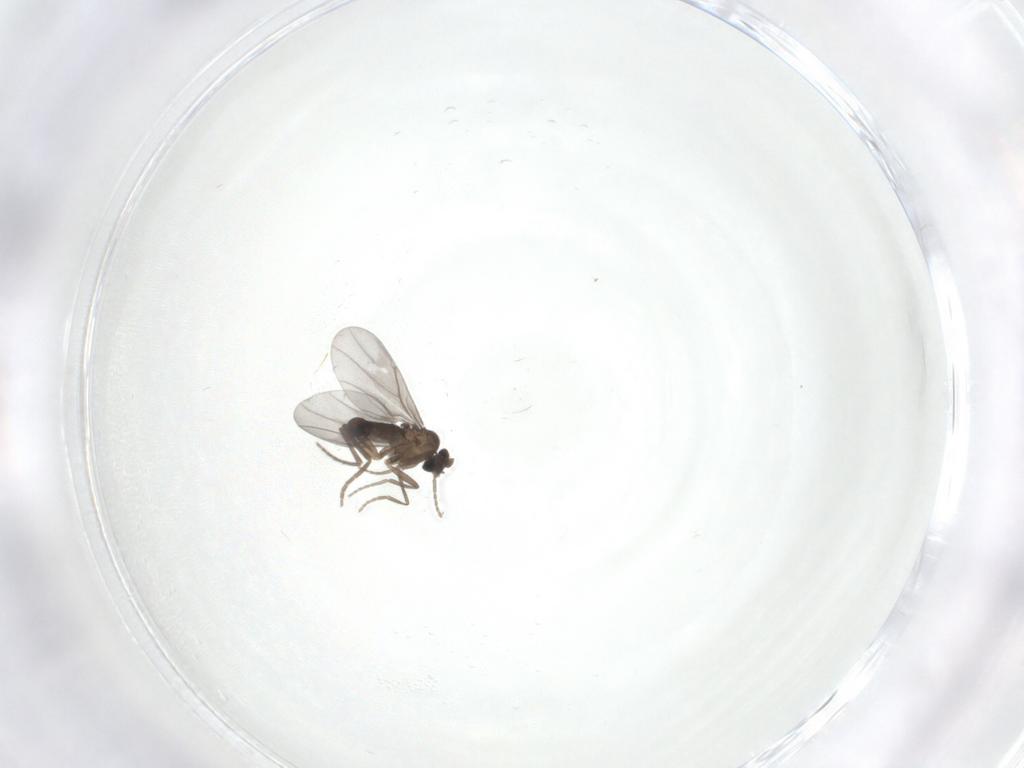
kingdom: Animalia
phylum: Arthropoda
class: Insecta
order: Diptera
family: Cecidomyiidae
